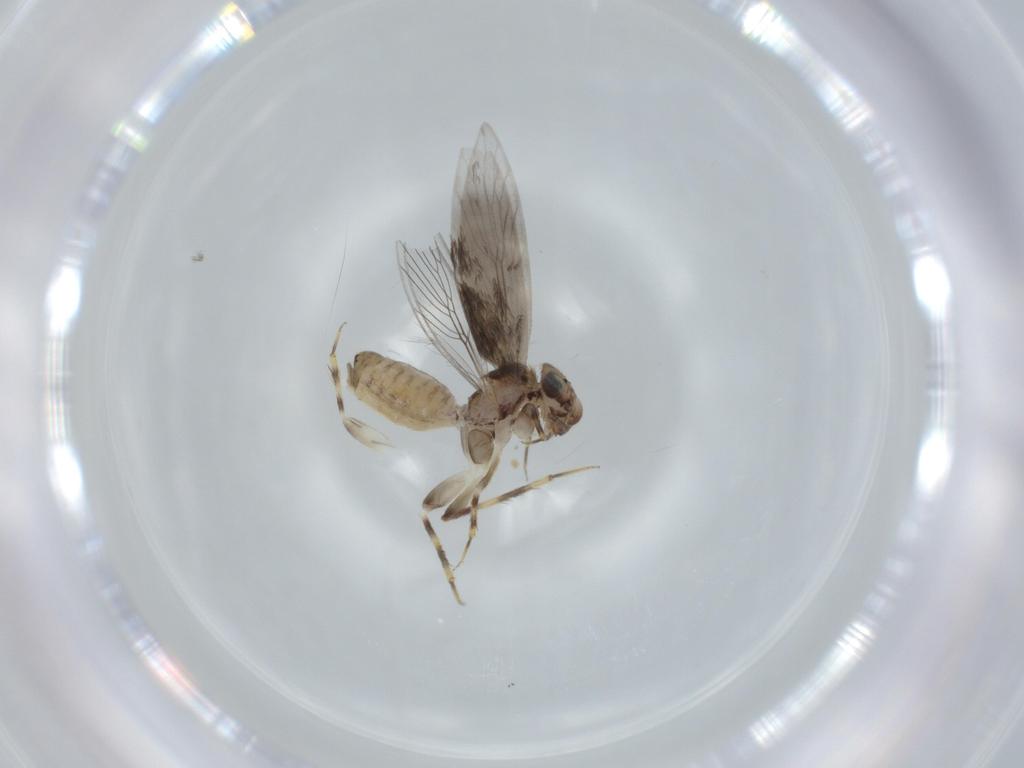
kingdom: Animalia
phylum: Arthropoda
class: Insecta
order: Psocodea
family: Lepidopsocidae
